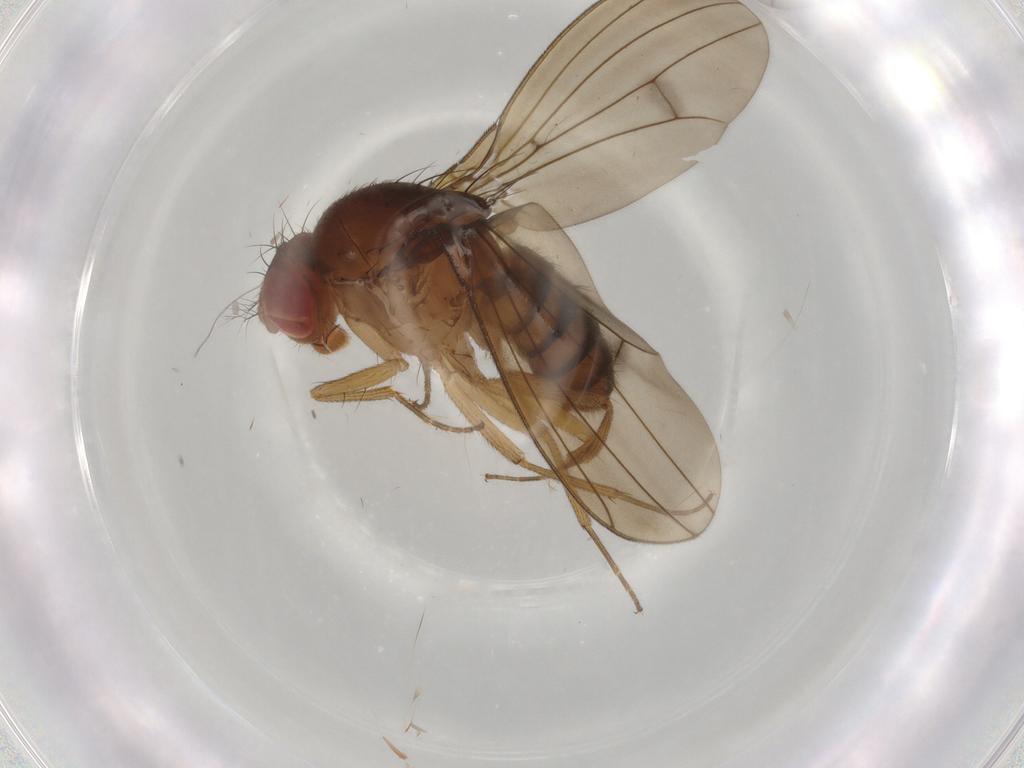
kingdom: Animalia
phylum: Arthropoda
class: Insecta
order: Diptera
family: Drosophilidae
